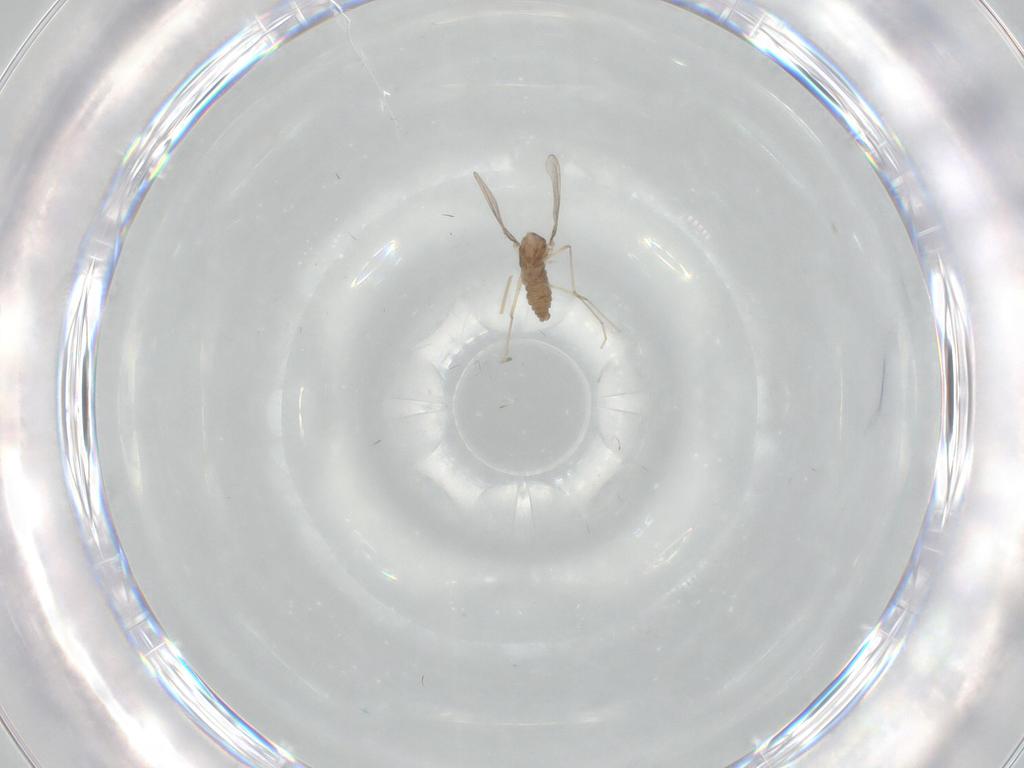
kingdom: Animalia
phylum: Arthropoda
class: Insecta
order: Diptera
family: Cecidomyiidae
